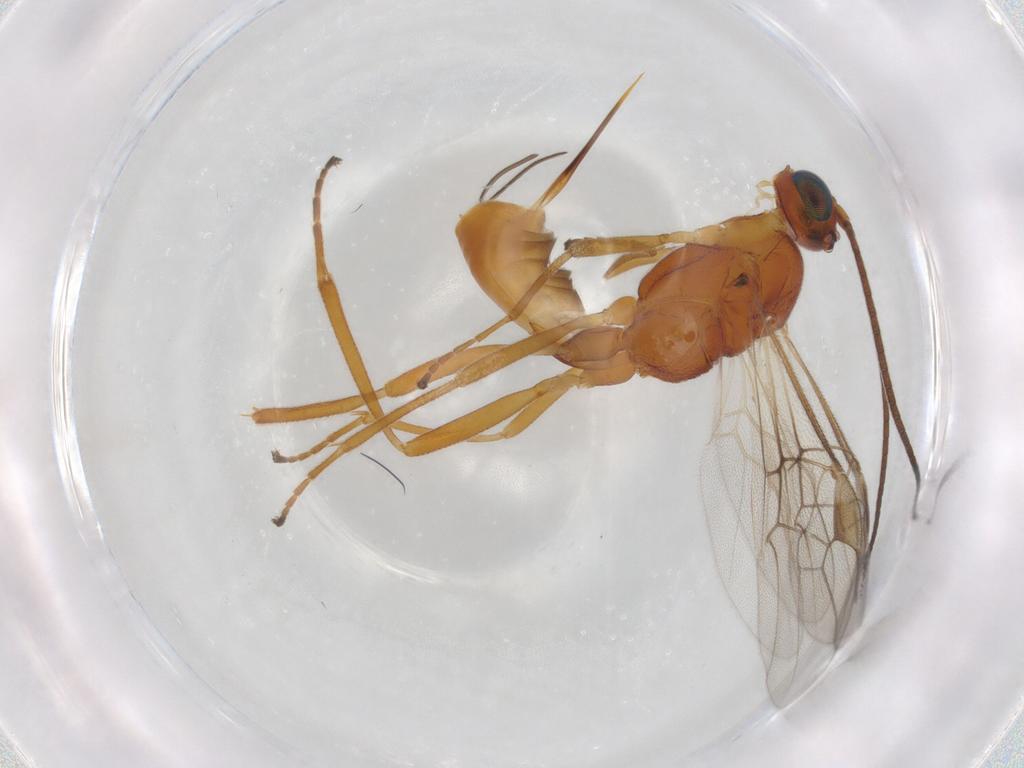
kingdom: Animalia
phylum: Arthropoda
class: Insecta
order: Hymenoptera
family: Braconidae
